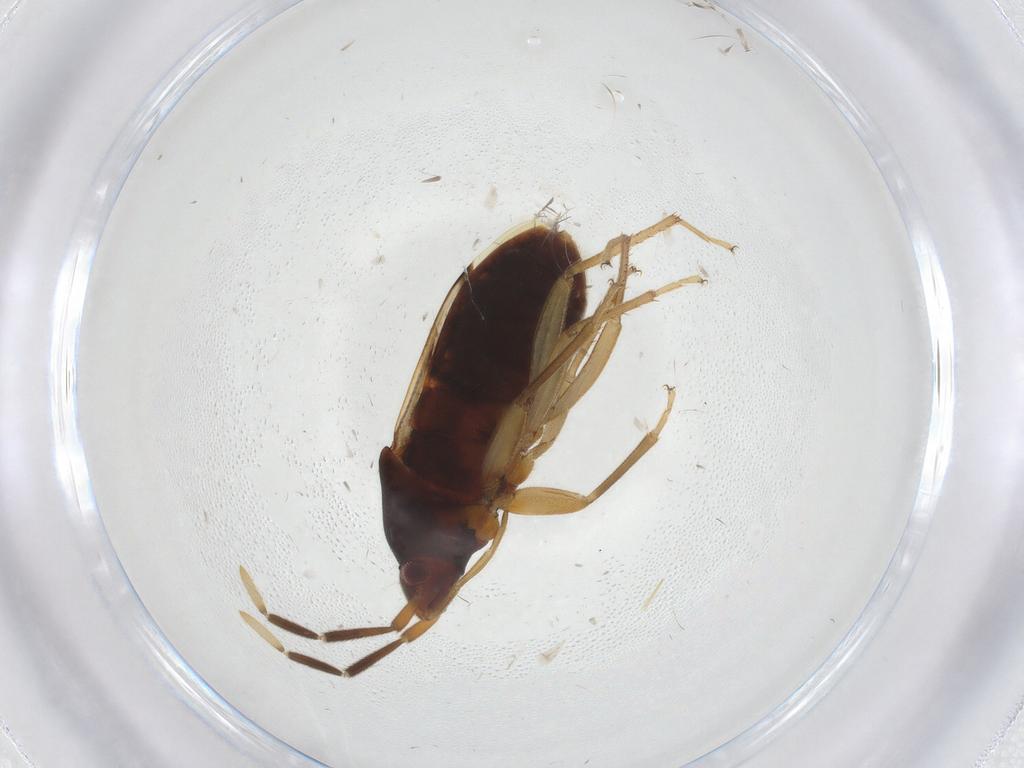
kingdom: Animalia
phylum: Arthropoda
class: Insecta
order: Hemiptera
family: Rhyparochromidae
